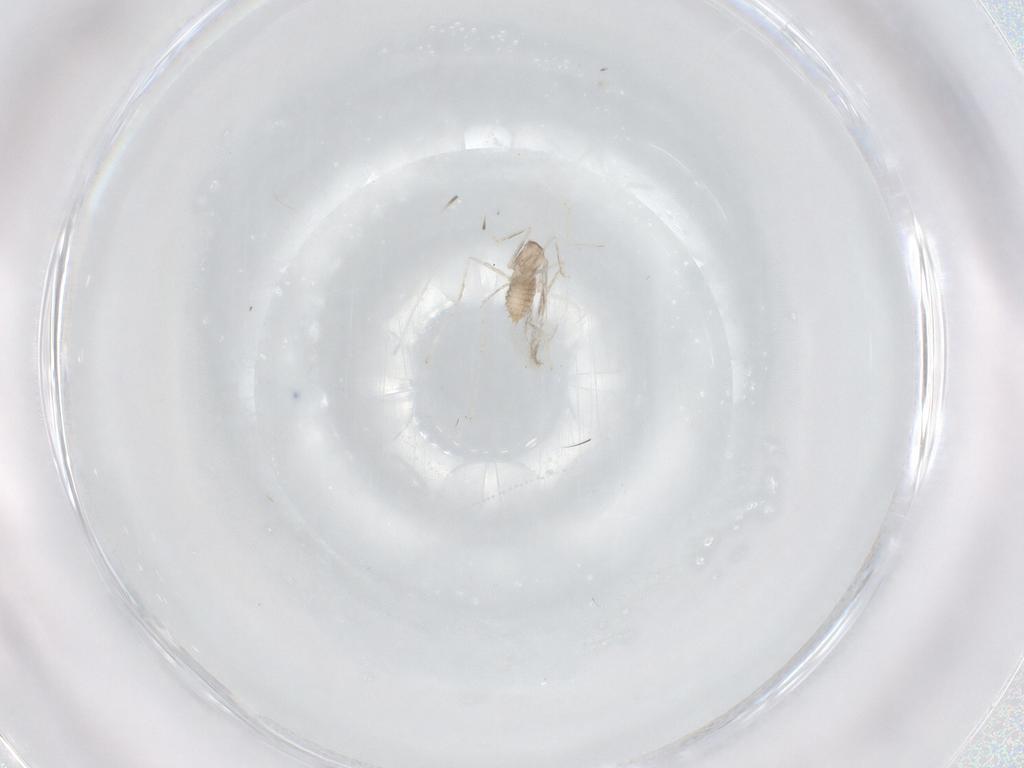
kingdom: Animalia
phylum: Arthropoda
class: Insecta
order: Diptera
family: Cecidomyiidae
